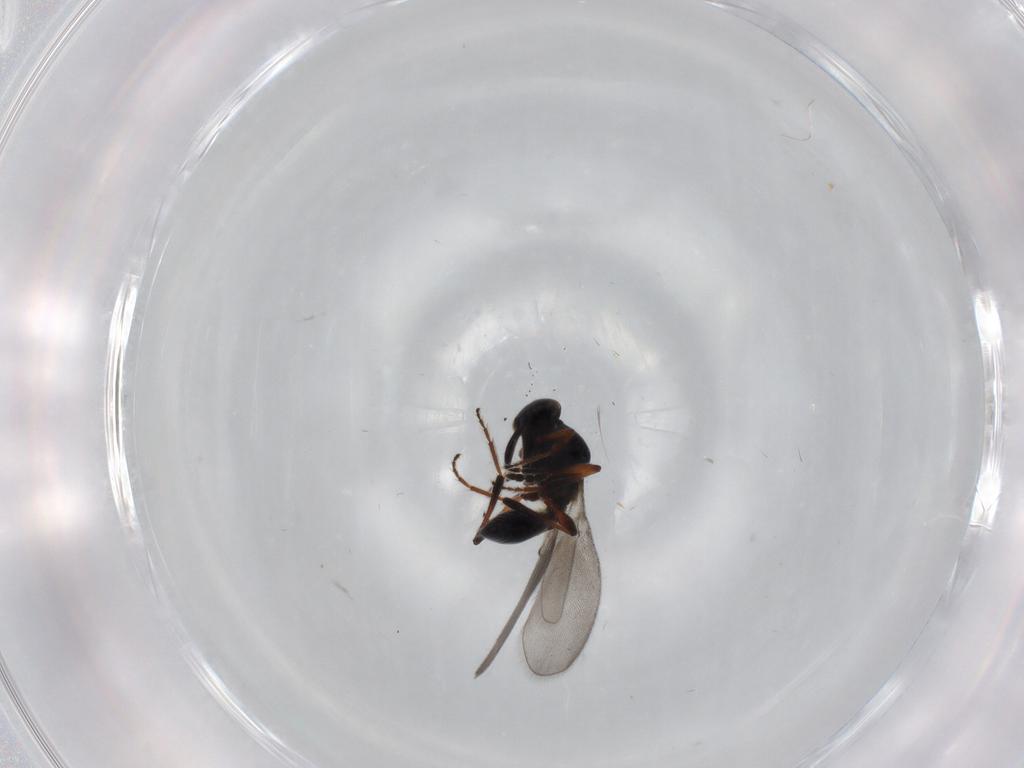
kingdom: Animalia
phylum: Arthropoda
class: Insecta
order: Hymenoptera
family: Platygastridae
